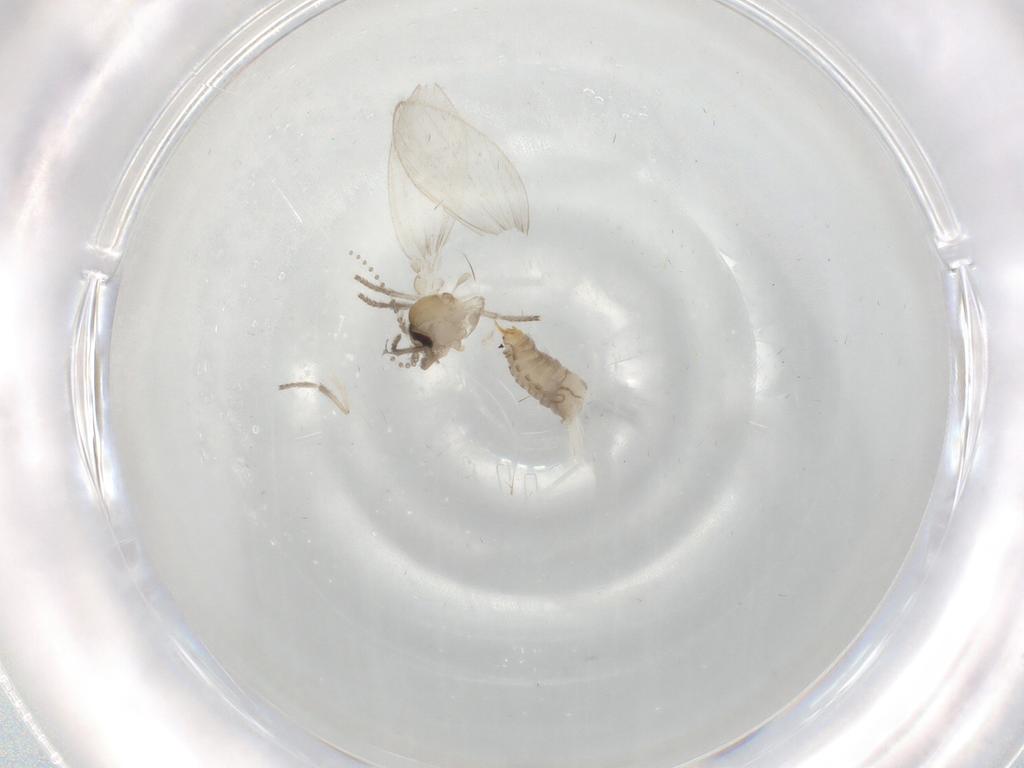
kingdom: Animalia
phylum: Arthropoda
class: Insecta
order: Diptera
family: Psychodidae
